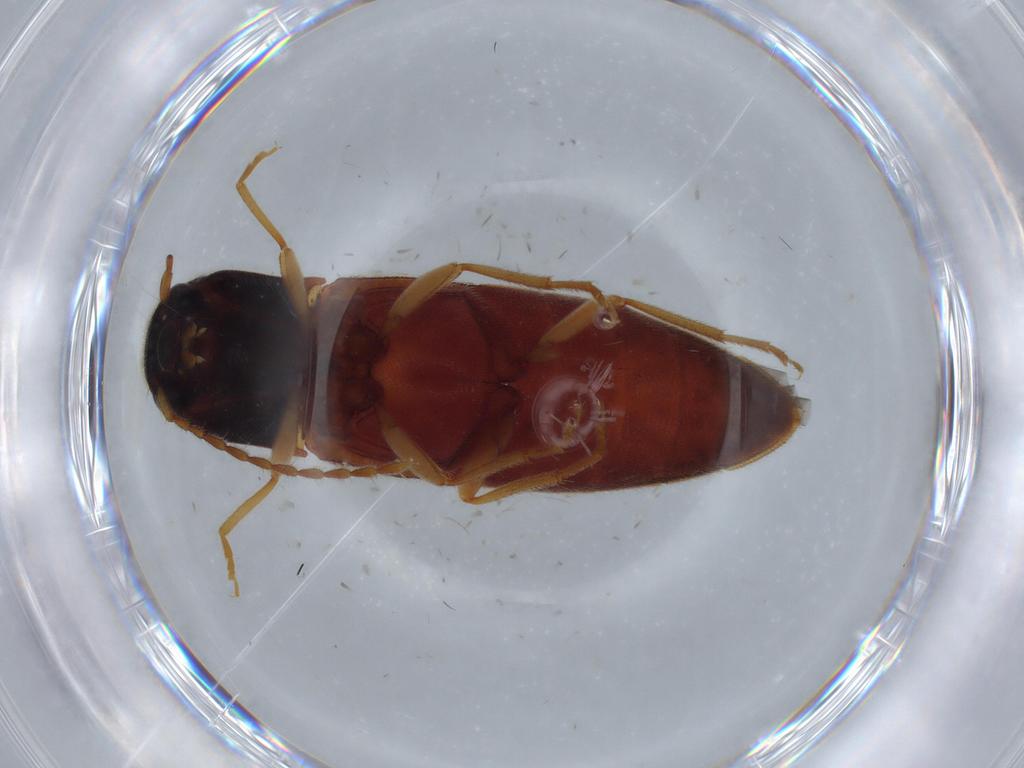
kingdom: Animalia
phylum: Arthropoda
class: Insecta
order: Coleoptera
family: Elateridae
